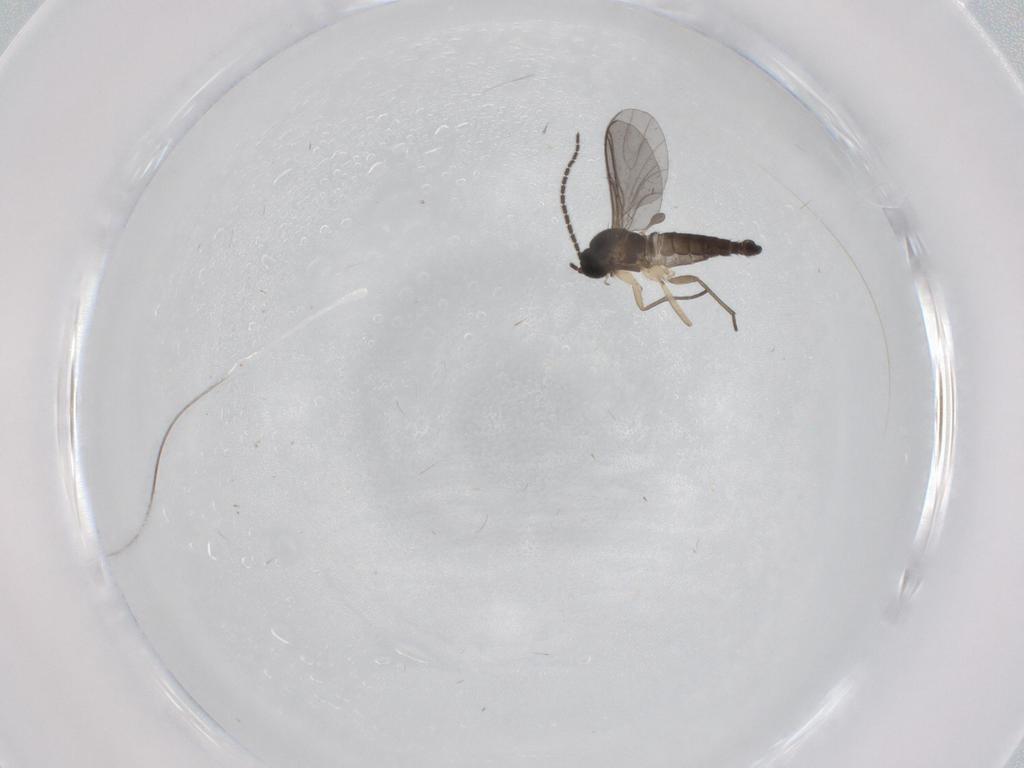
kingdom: Animalia
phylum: Arthropoda
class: Insecta
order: Diptera
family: Sciaridae
